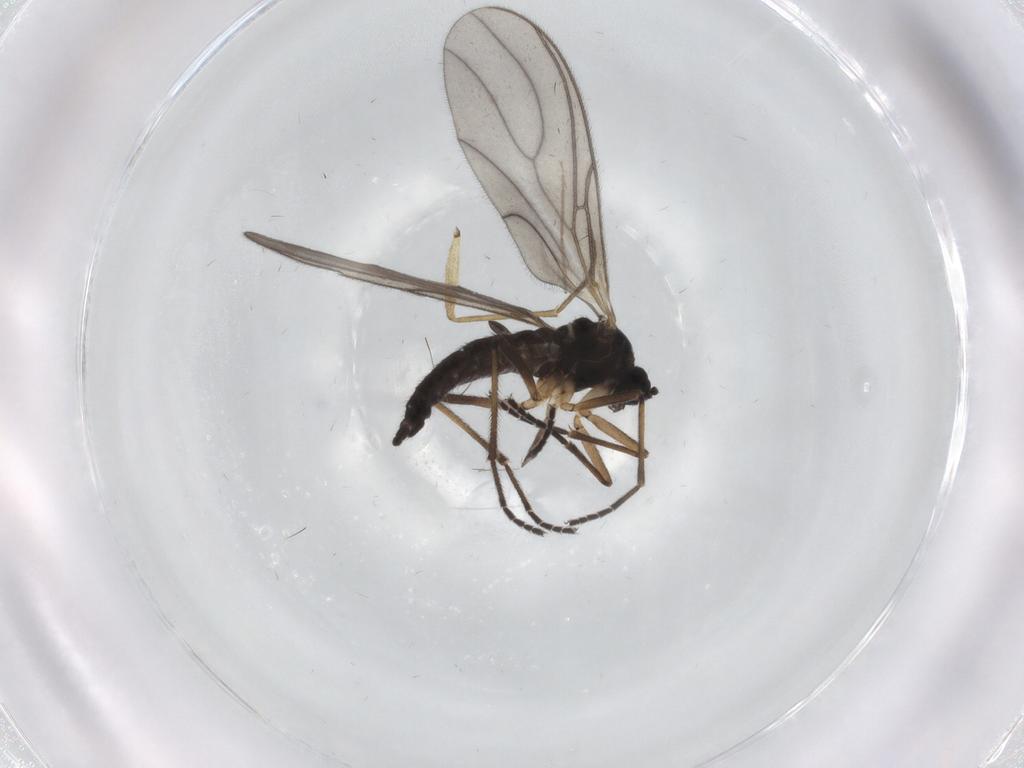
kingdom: Animalia
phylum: Arthropoda
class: Insecta
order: Diptera
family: Sciaridae
